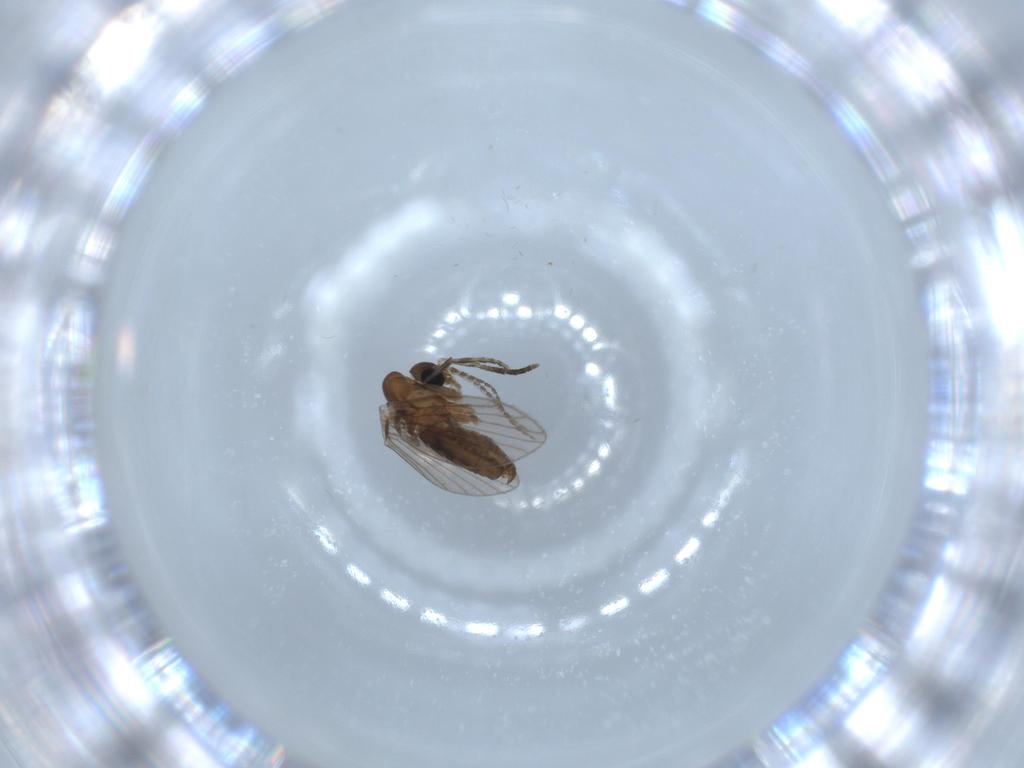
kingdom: Animalia
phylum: Arthropoda
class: Insecta
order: Diptera
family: Psychodidae
